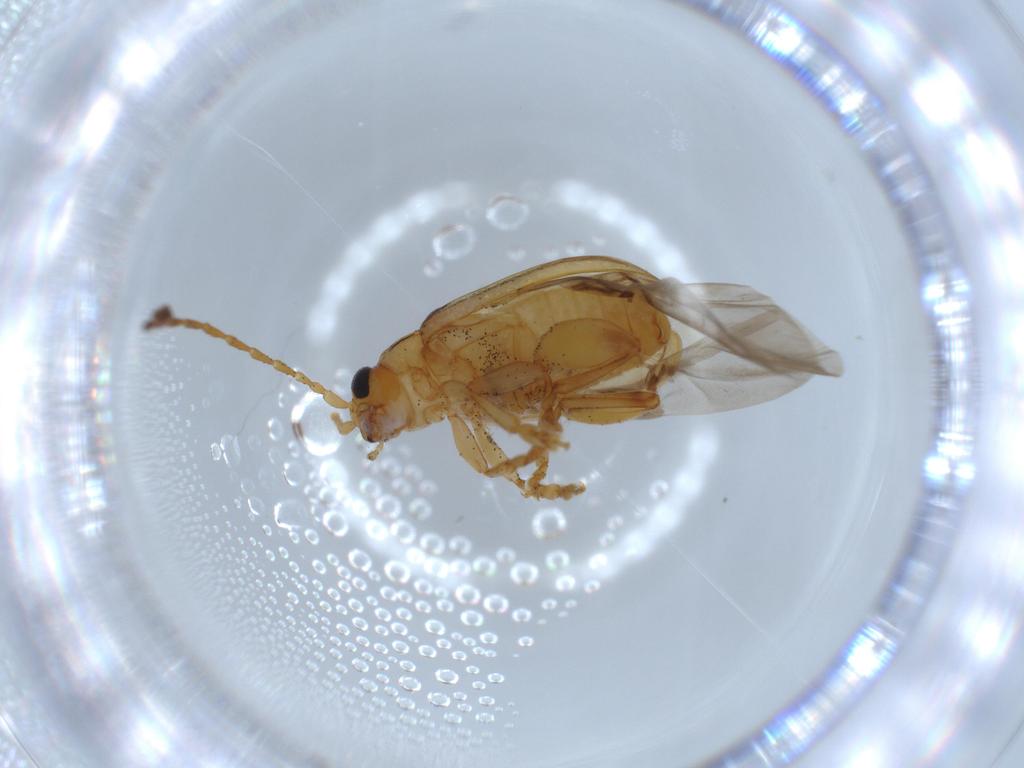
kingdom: Animalia
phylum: Arthropoda
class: Insecta
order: Coleoptera
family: Chrysomelidae
